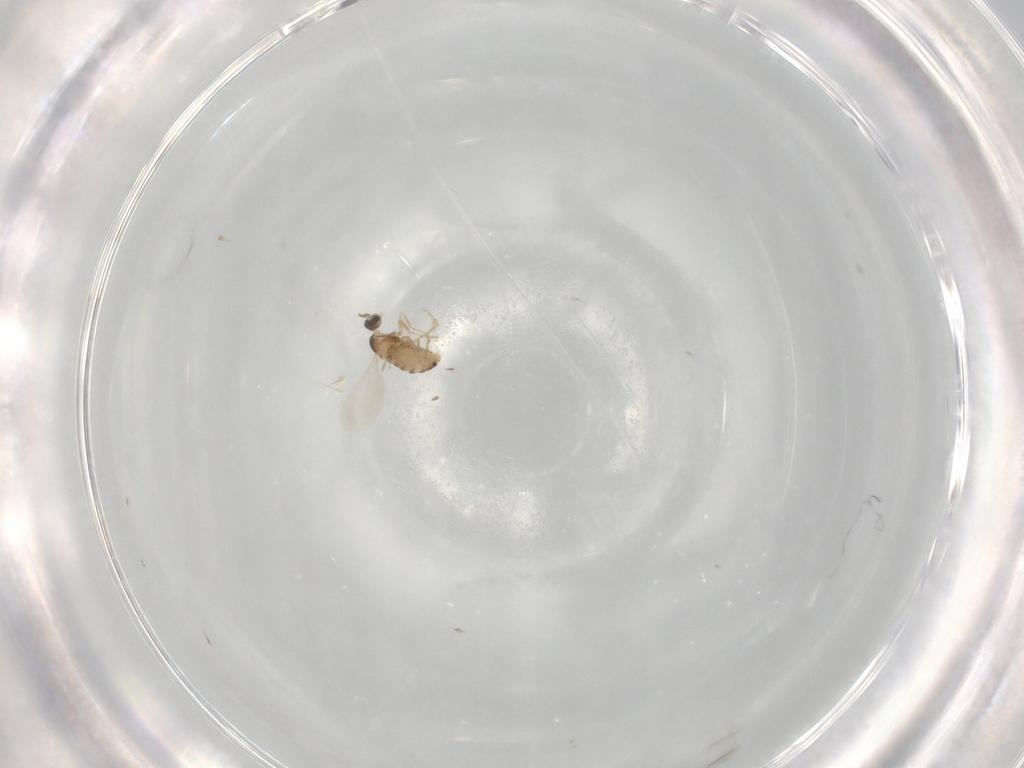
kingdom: Animalia
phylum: Arthropoda
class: Insecta
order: Diptera
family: Cecidomyiidae
